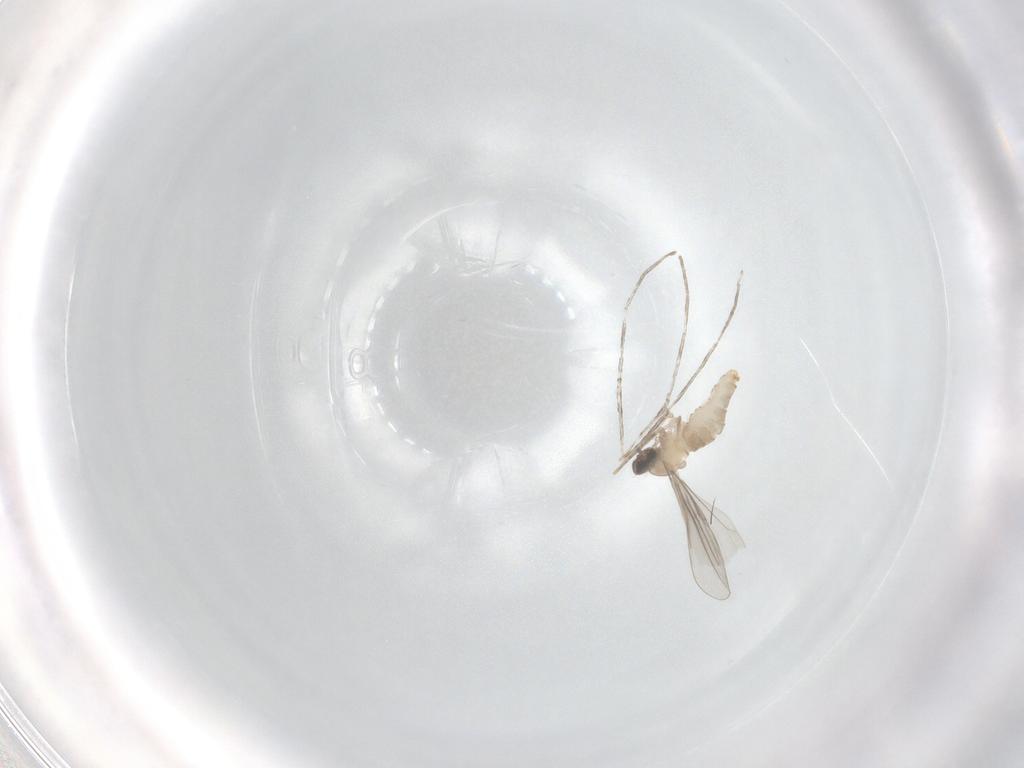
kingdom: Animalia
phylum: Arthropoda
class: Insecta
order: Diptera
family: Cecidomyiidae
